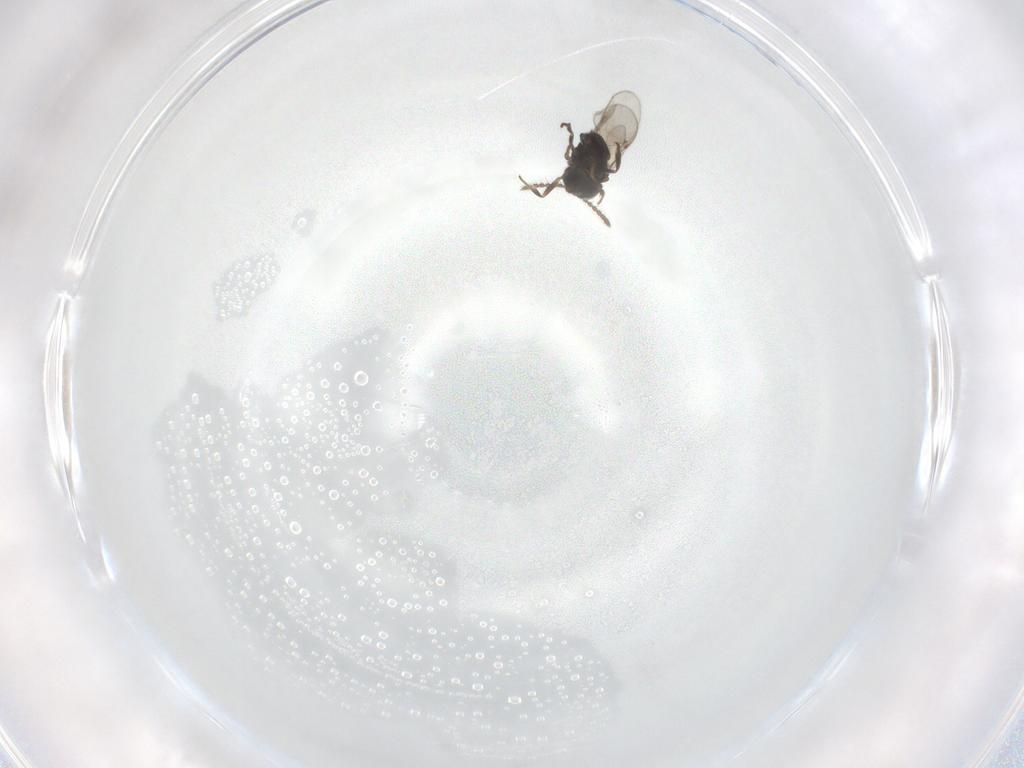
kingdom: Animalia
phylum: Arthropoda
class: Insecta
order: Hymenoptera
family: Encyrtidae
